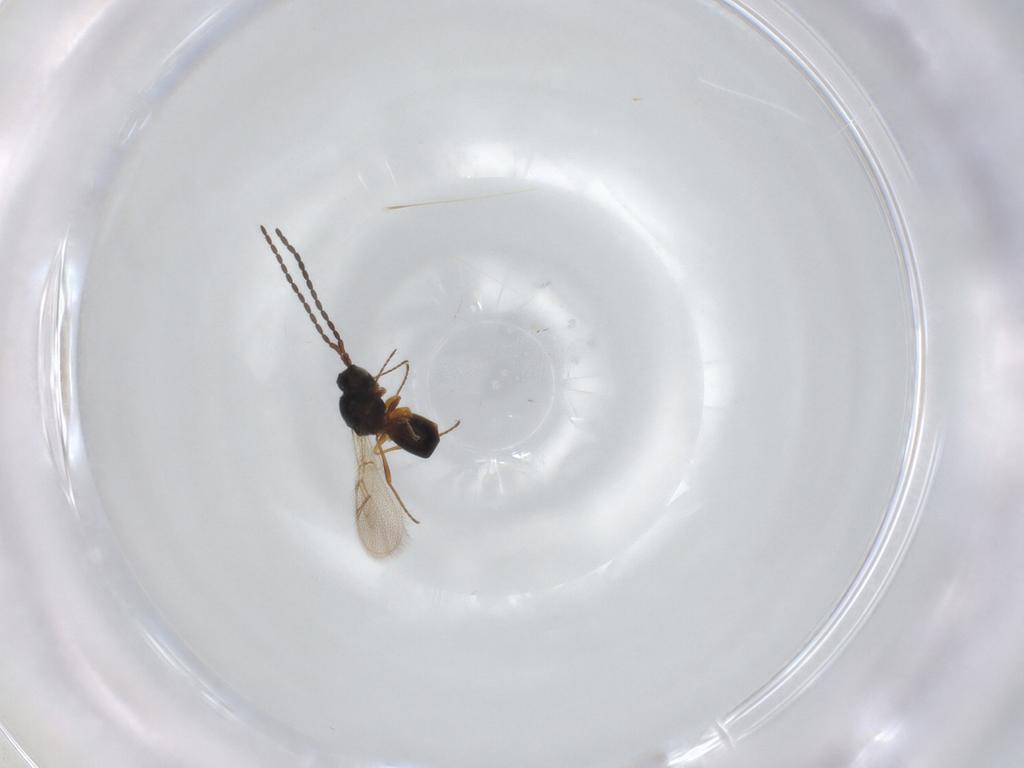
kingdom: Animalia
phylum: Arthropoda
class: Insecta
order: Hymenoptera
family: Figitidae
